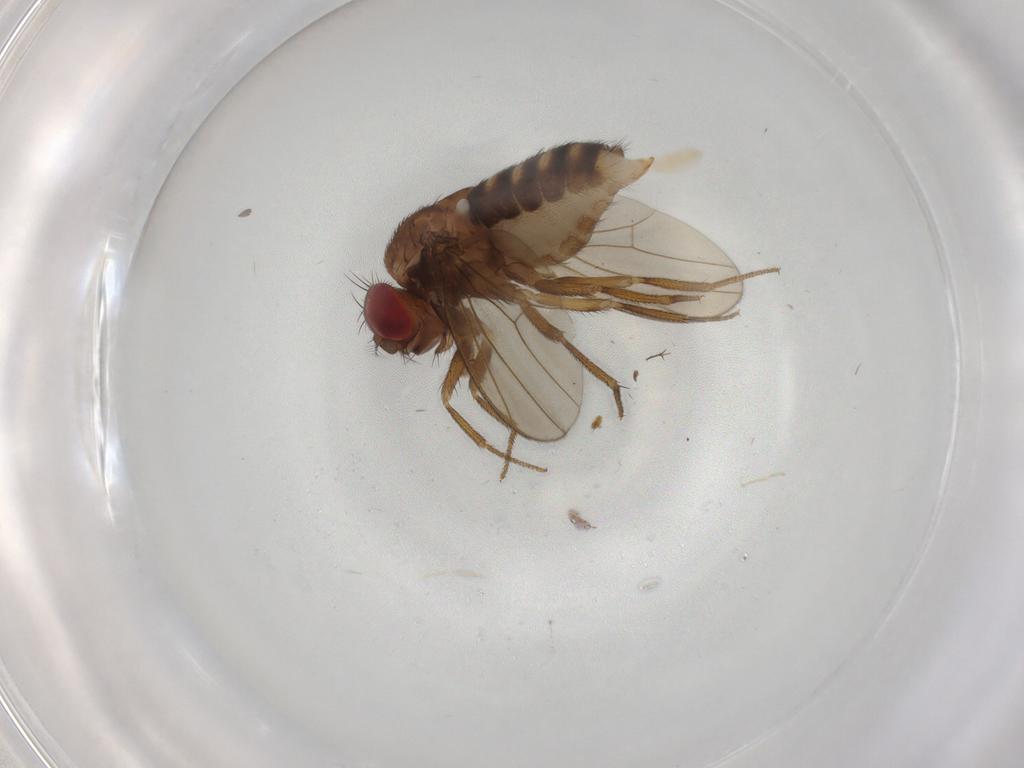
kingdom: Animalia
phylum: Arthropoda
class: Insecta
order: Diptera
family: Drosophilidae
